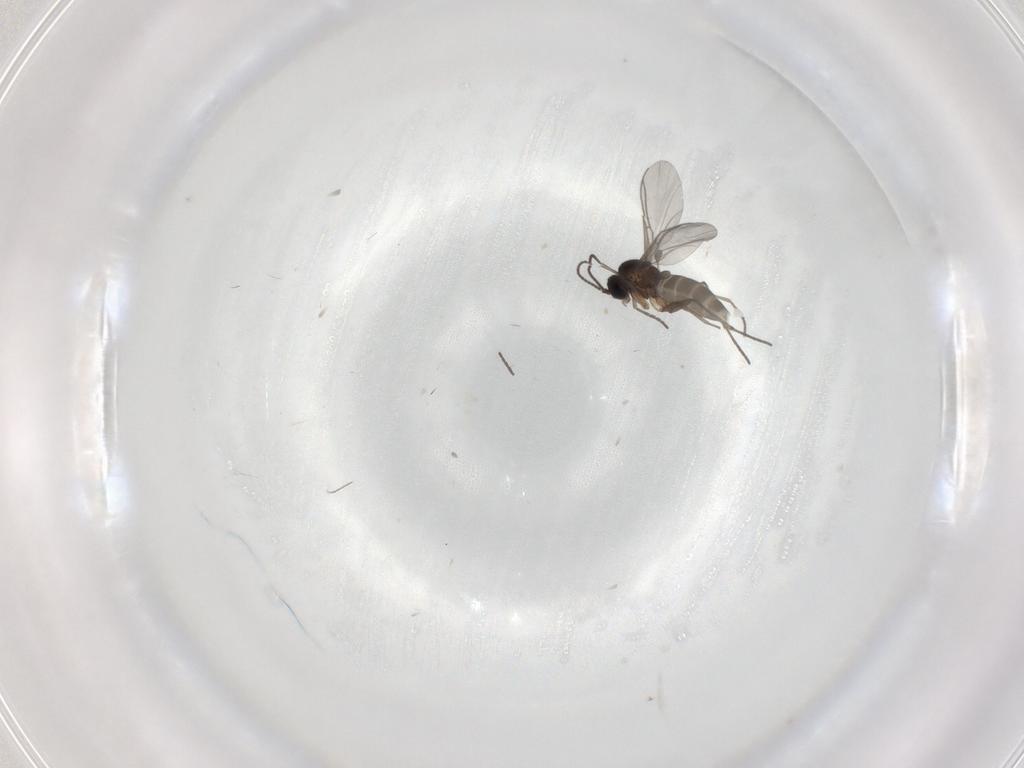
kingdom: Animalia
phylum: Arthropoda
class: Insecta
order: Diptera
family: Sciaridae
